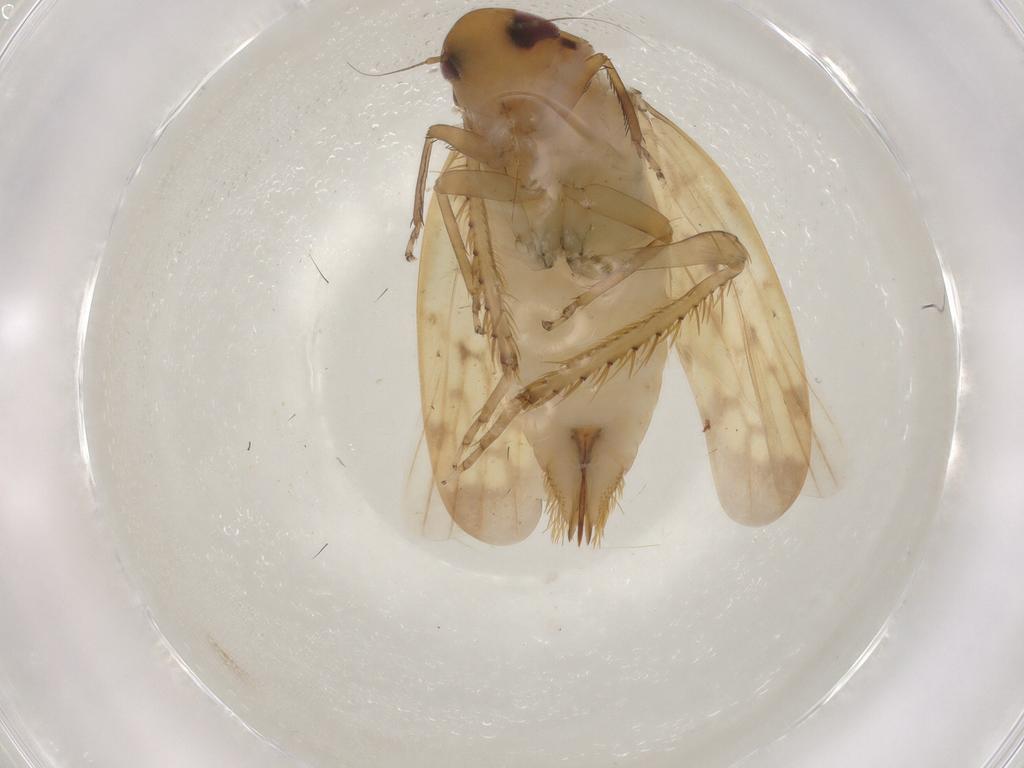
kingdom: Animalia
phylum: Arthropoda
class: Insecta
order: Hemiptera
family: Cicadellidae
